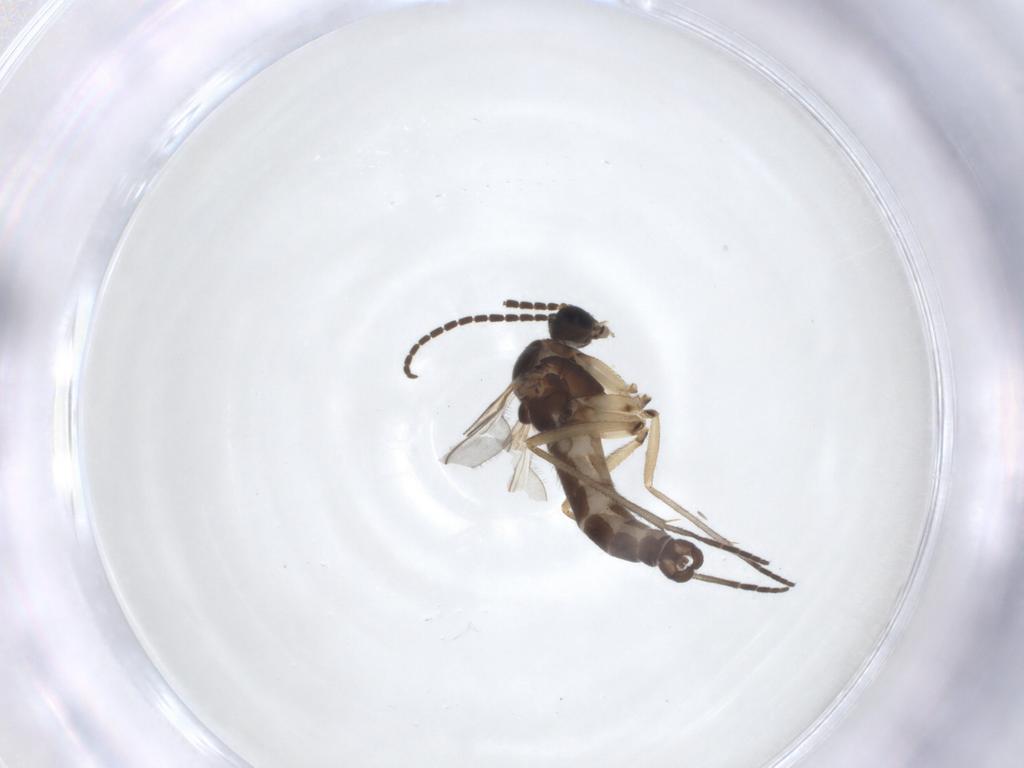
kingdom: Animalia
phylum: Arthropoda
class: Insecta
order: Diptera
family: Sciaridae
